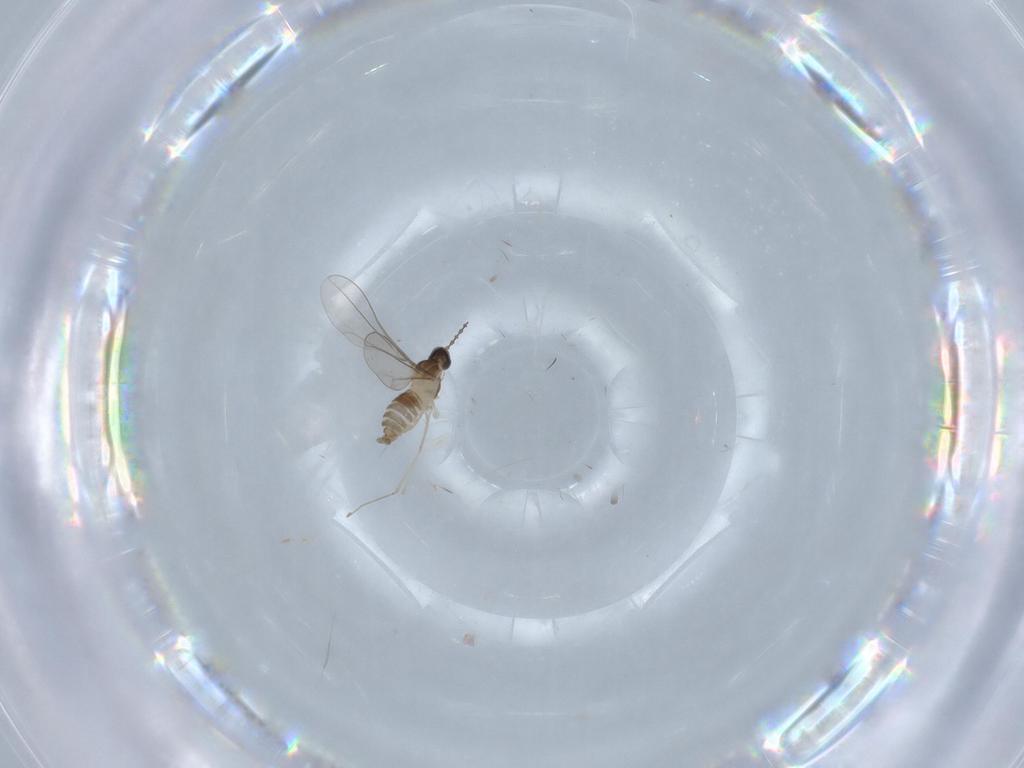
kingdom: Animalia
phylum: Arthropoda
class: Insecta
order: Diptera
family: Cecidomyiidae
